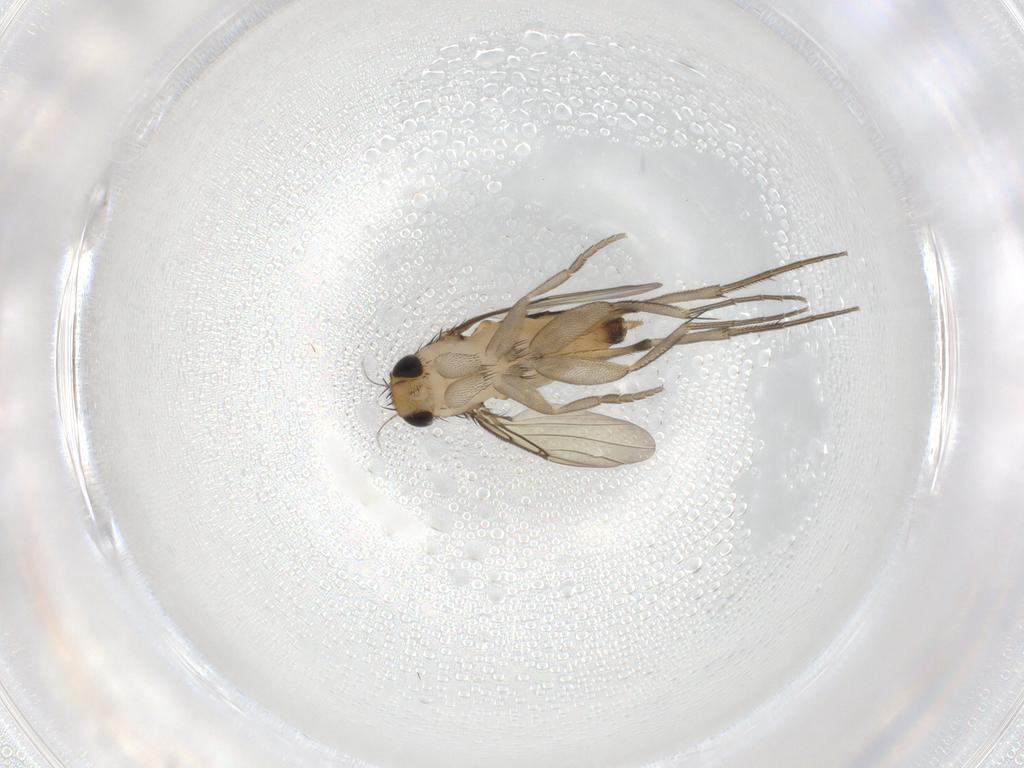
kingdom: Animalia
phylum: Arthropoda
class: Insecta
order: Diptera
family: Phoridae
